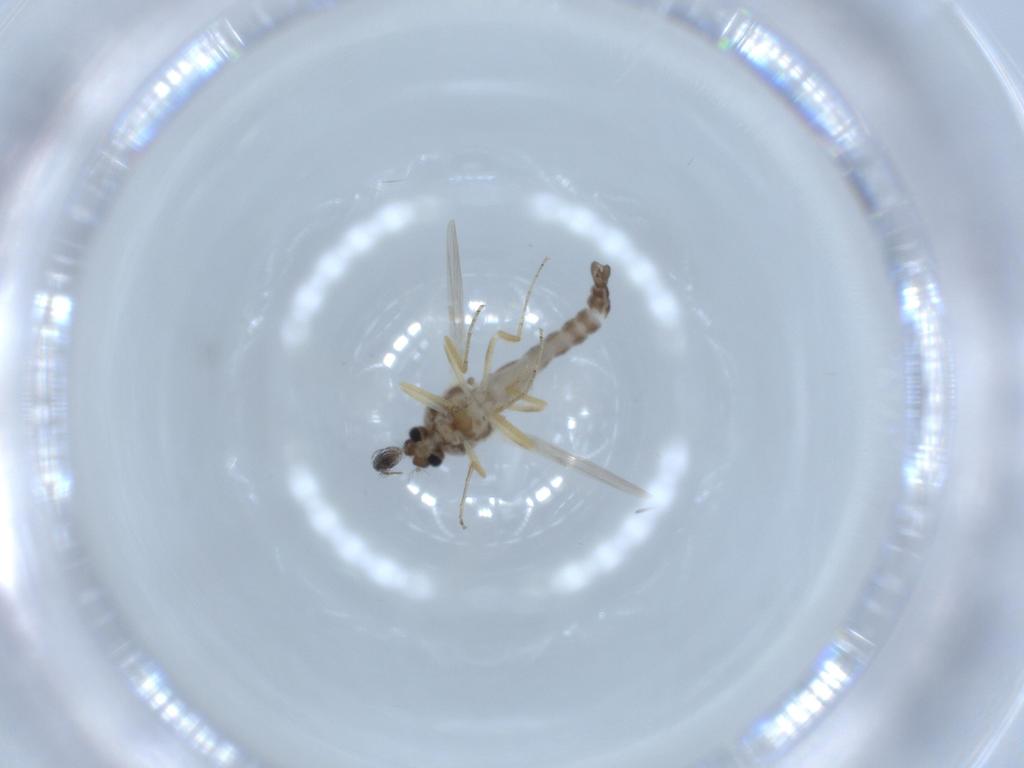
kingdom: Animalia
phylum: Arthropoda
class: Insecta
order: Diptera
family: Ceratopogonidae
